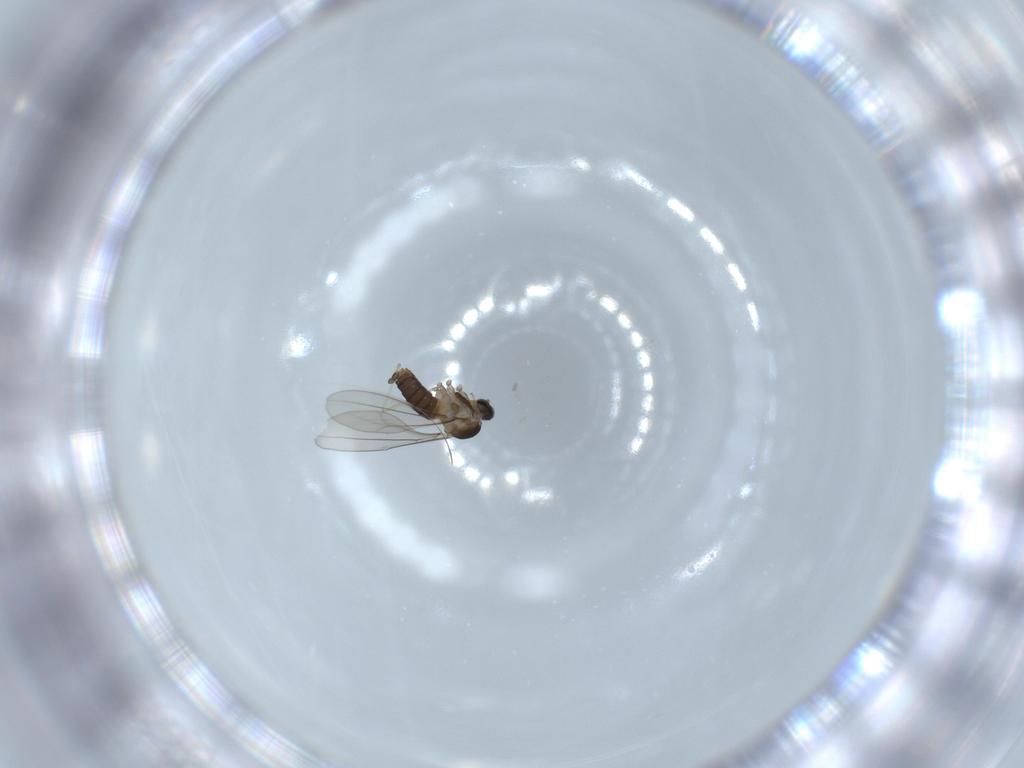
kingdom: Animalia
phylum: Arthropoda
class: Insecta
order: Diptera
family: Cecidomyiidae
